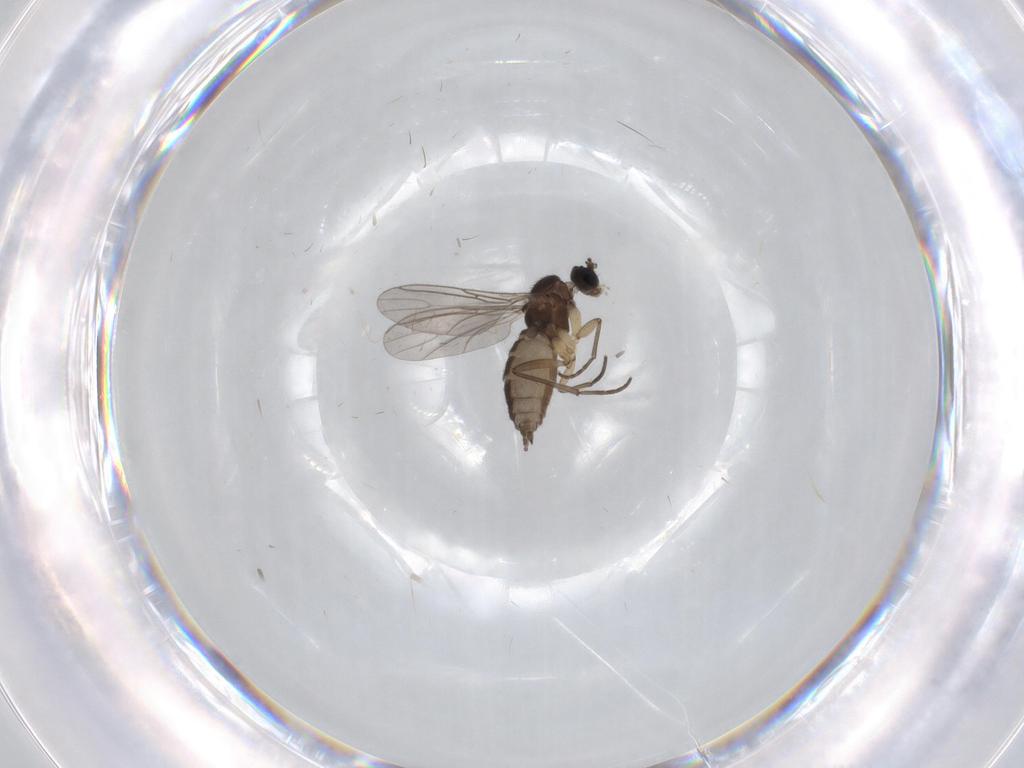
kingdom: Animalia
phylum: Arthropoda
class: Insecta
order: Diptera
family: Sciaridae
